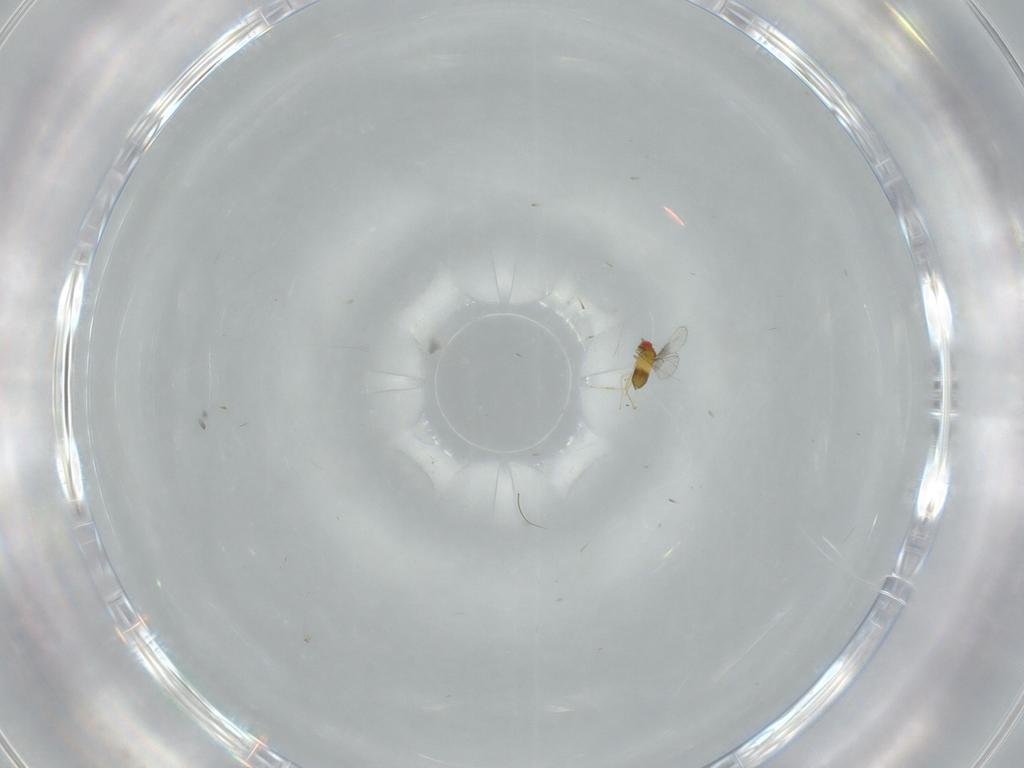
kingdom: Animalia
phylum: Arthropoda
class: Insecta
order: Hymenoptera
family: Trichogrammatidae
